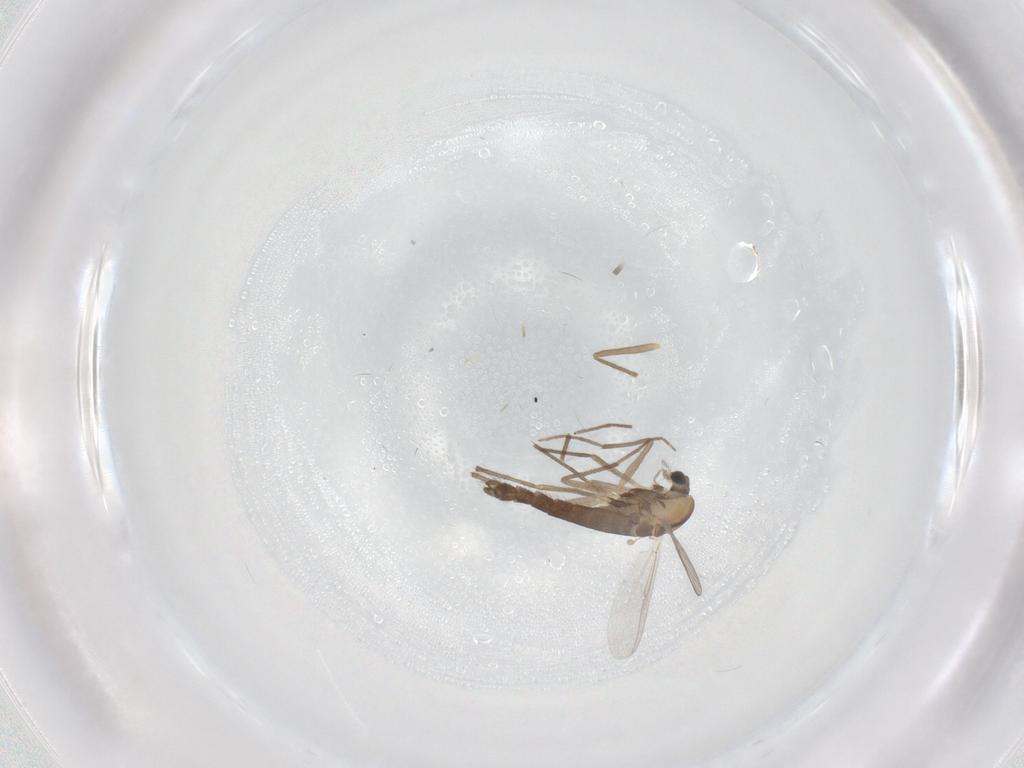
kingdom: Animalia
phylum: Arthropoda
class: Insecta
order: Diptera
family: Chironomidae
